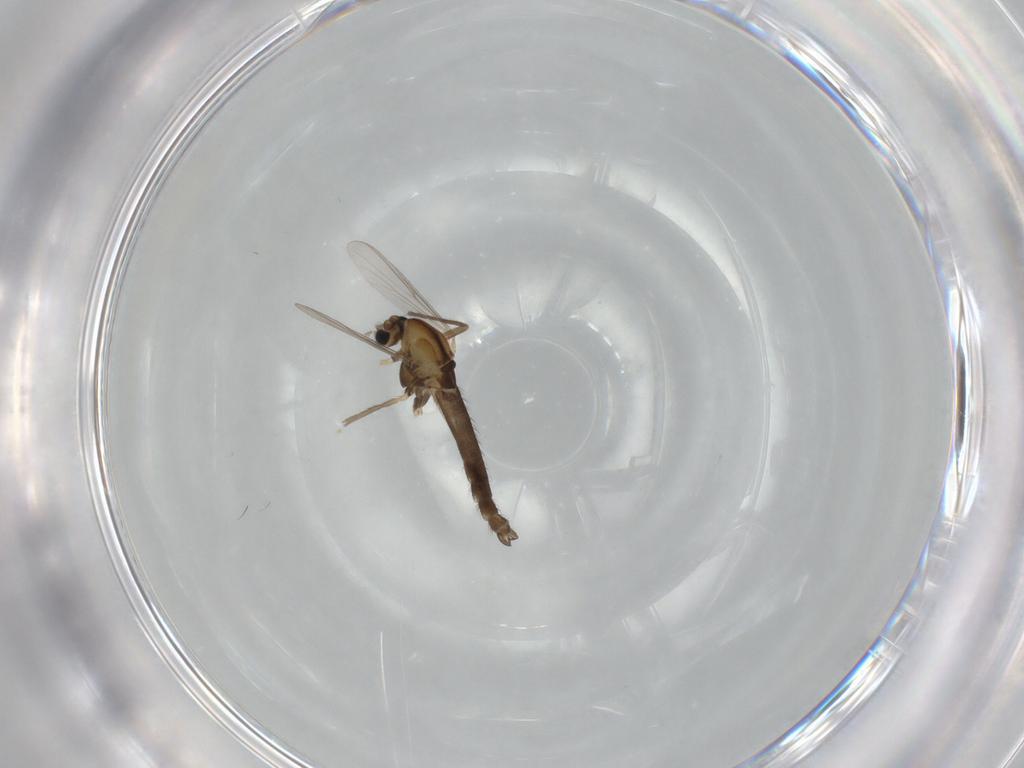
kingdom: Animalia
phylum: Arthropoda
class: Insecta
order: Diptera
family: Chironomidae
